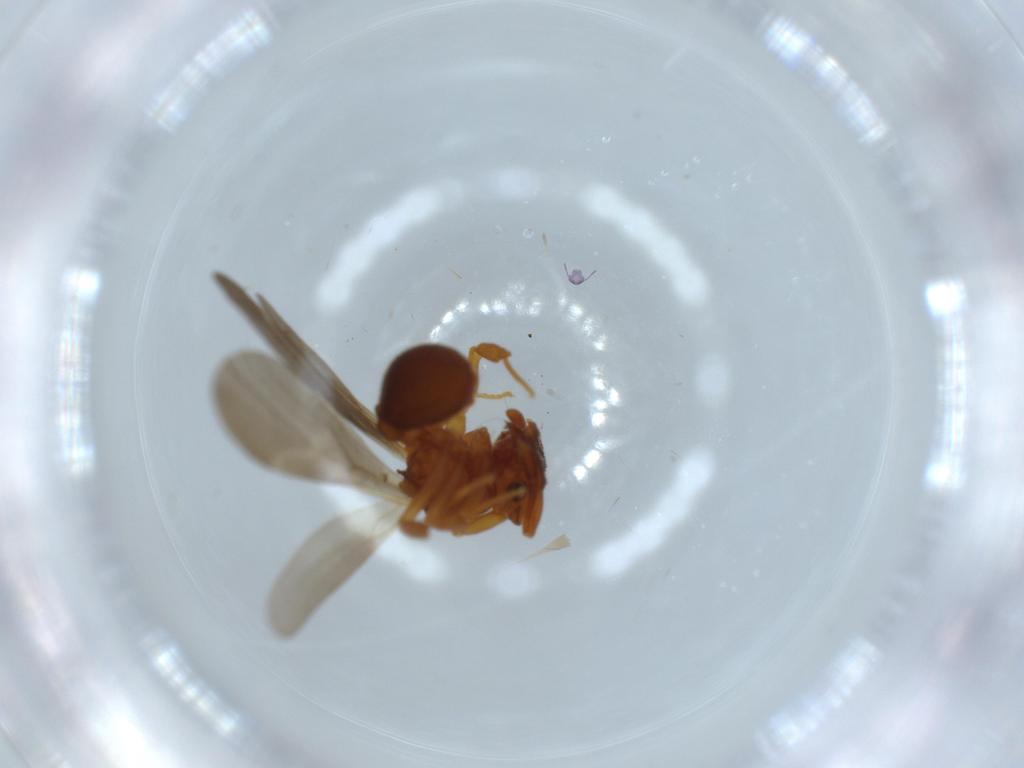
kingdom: Animalia
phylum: Arthropoda
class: Insecta
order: Hymenoptera
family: Formicidae
